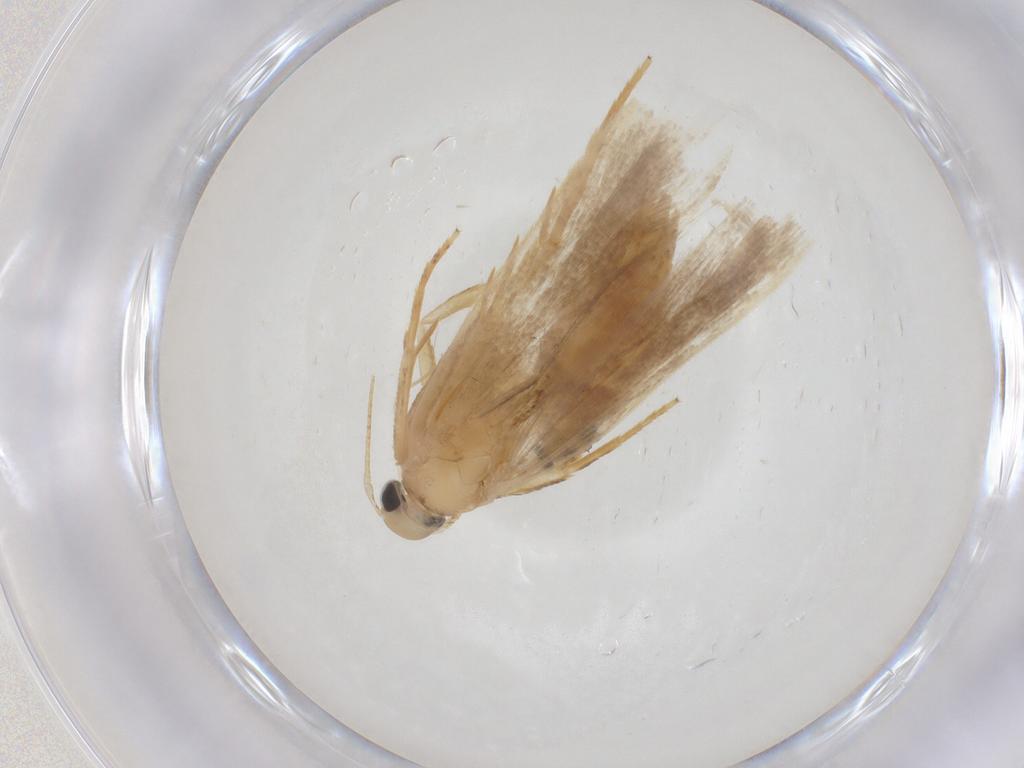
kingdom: Animalia
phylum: Arthropoda
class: Insecta
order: Lepidoptera
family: Gelechiidae
